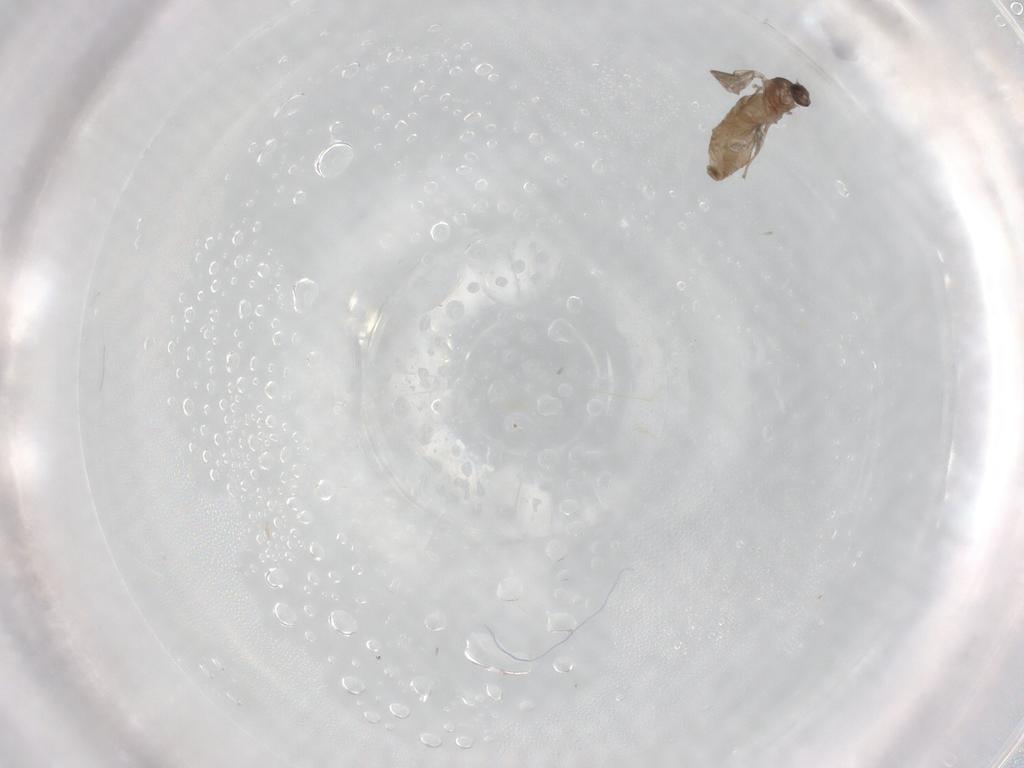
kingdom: Animalia
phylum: Arthropoda
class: Insecta
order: Diptera
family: Cecidomyiidae
